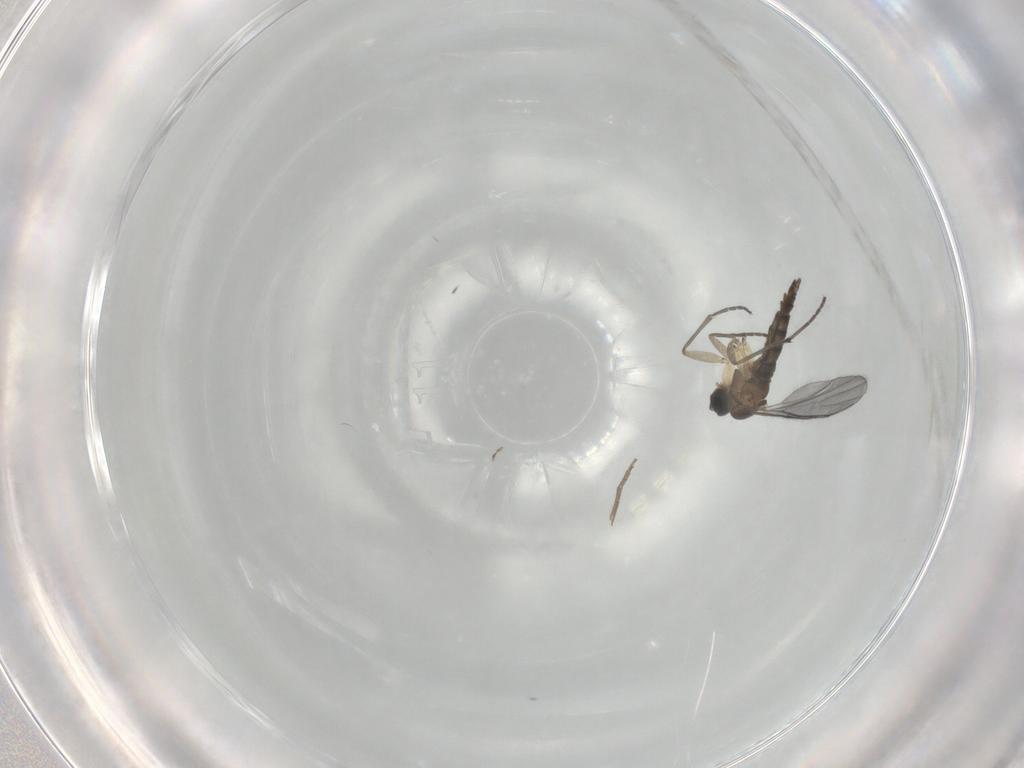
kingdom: Animalia
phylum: Arthropoda
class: Insecta
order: Diptera
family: Sciaridae
